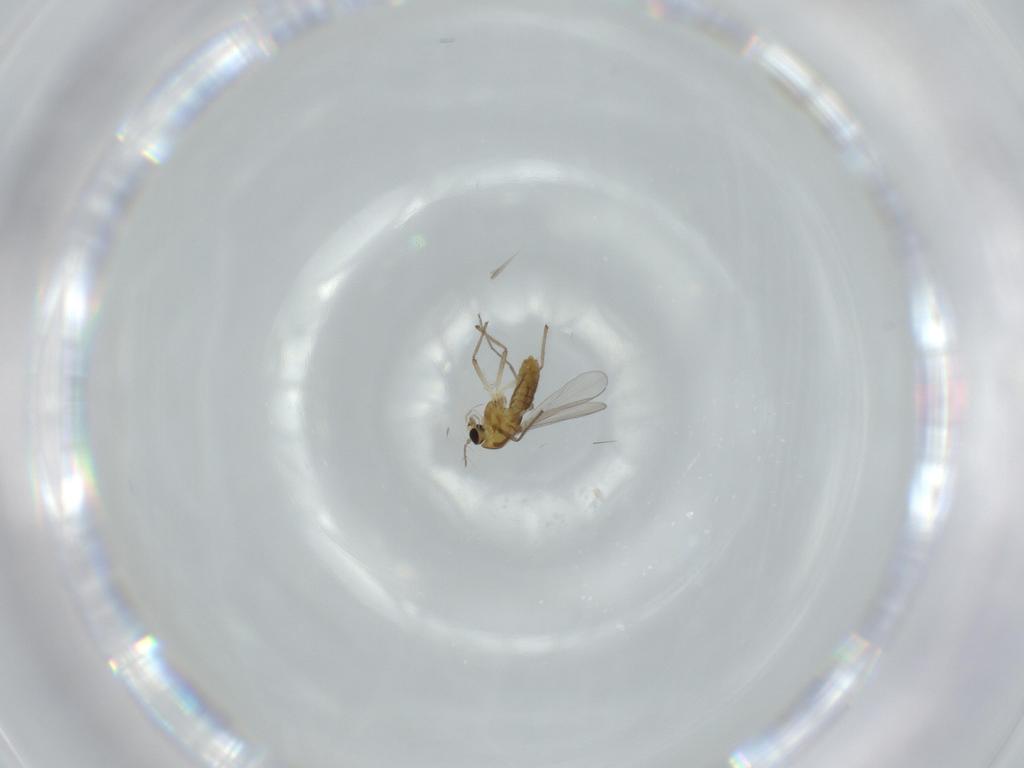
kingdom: Animalia
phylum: Arthropoda
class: Insecta
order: Diptera
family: Chironomidae
